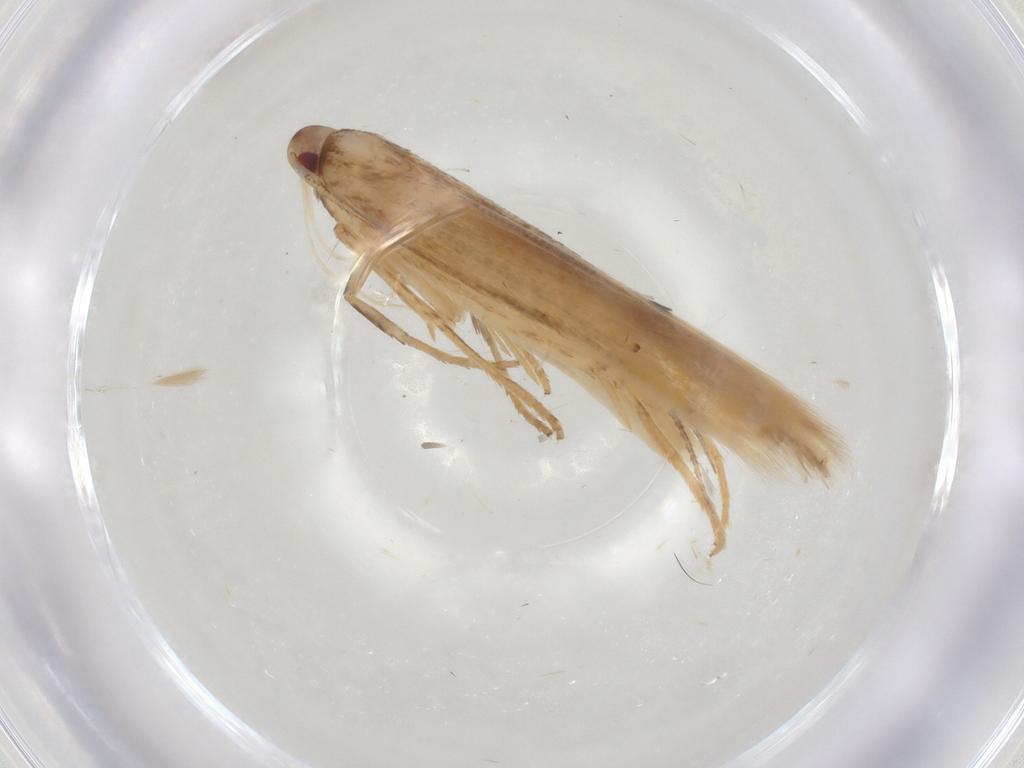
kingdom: Animalia
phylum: Arthropoda
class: Insecta
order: Lepidoptera
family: Cosmopterigidae
